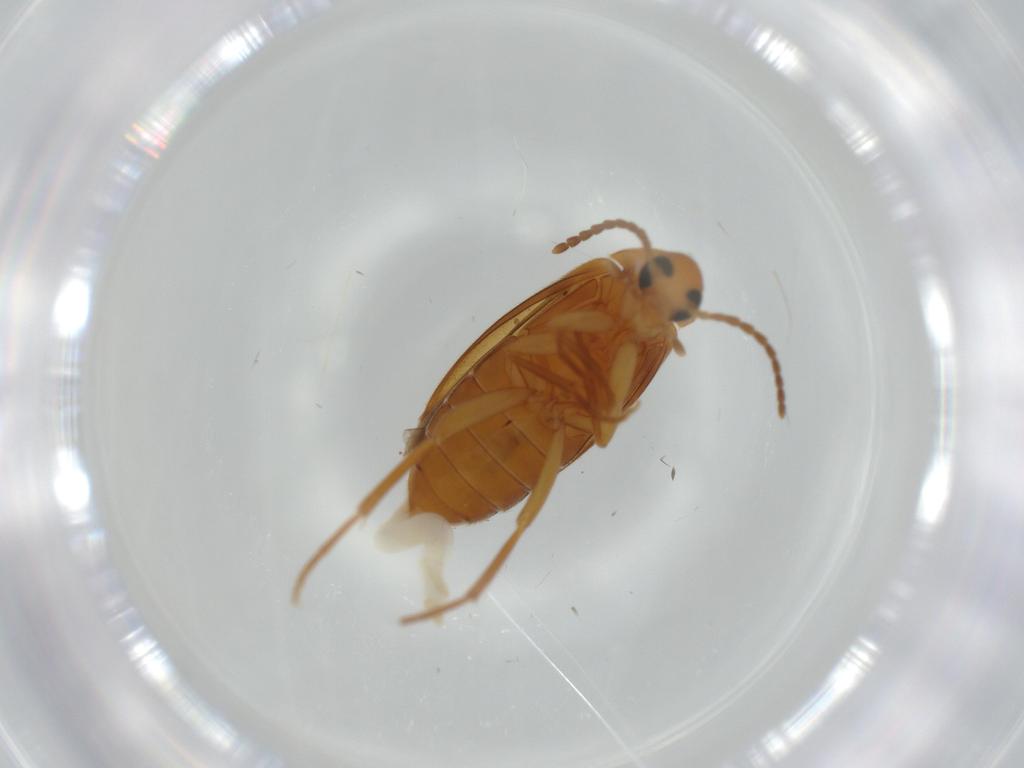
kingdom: Animalia
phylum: Arthropoda
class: Insecta
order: Coleoptera
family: Scraptiidae
